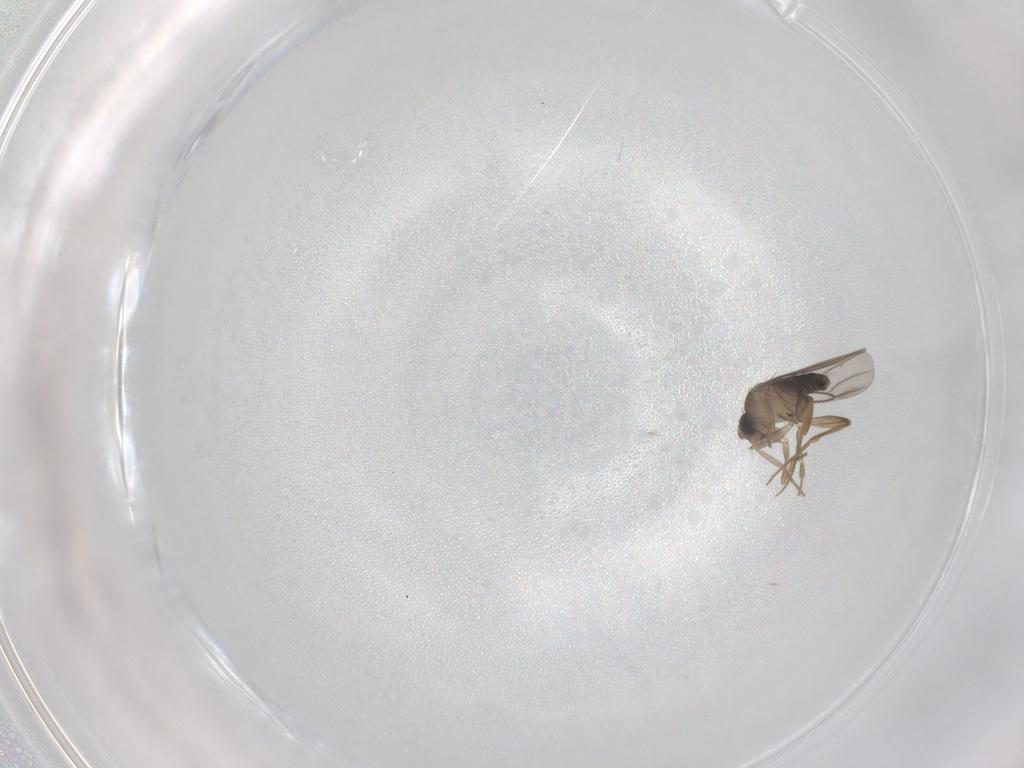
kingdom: Animalia
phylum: Arthropoda
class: Insecta
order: Diptera
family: Phoridae
